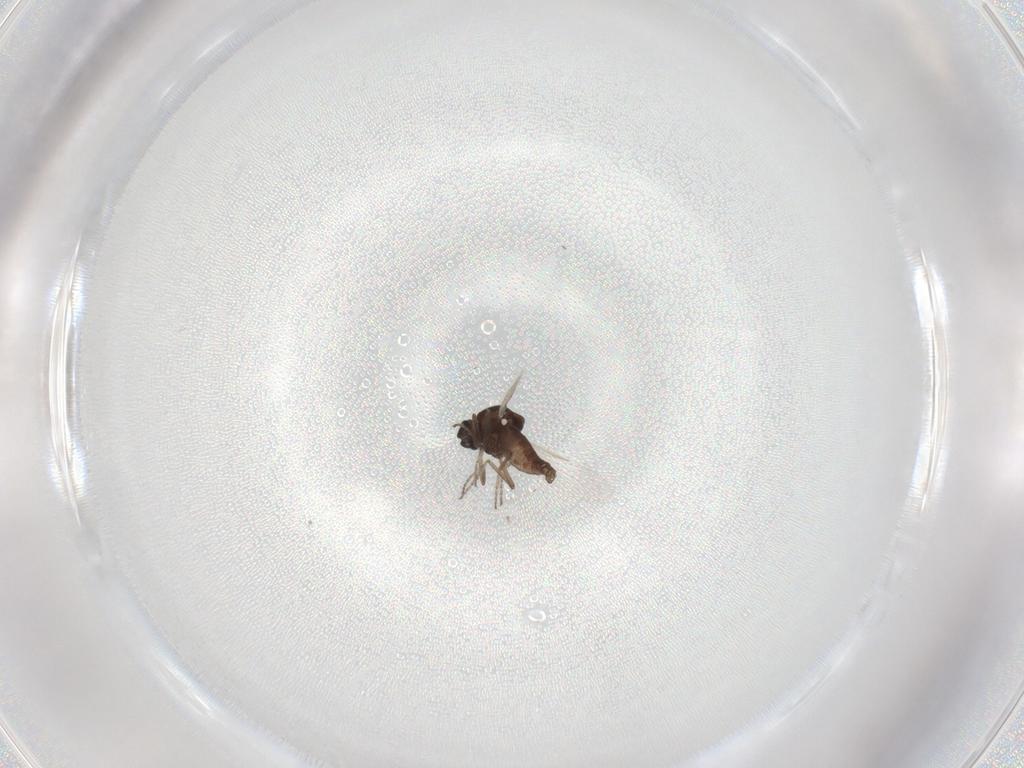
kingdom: Animalia
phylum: Arthropoda
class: Insecta
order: Diptera
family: Ceratopogonidae
